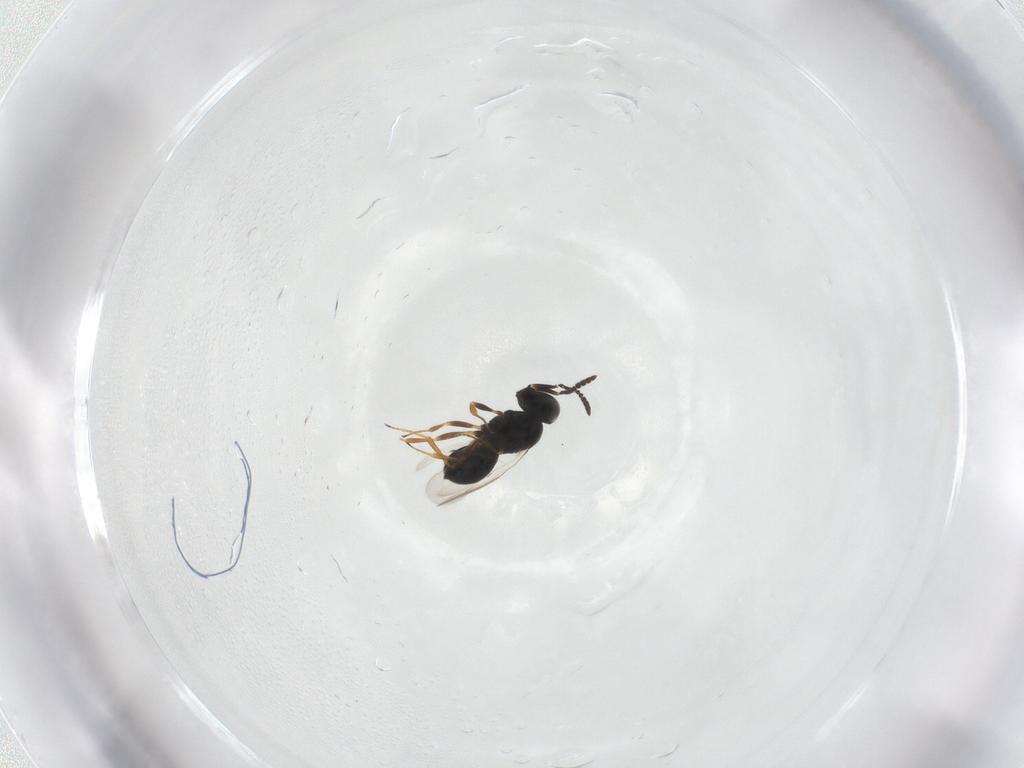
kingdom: Animalia
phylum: Arthropoda
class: Insecta
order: Hymenoptera
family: Scelionidae
